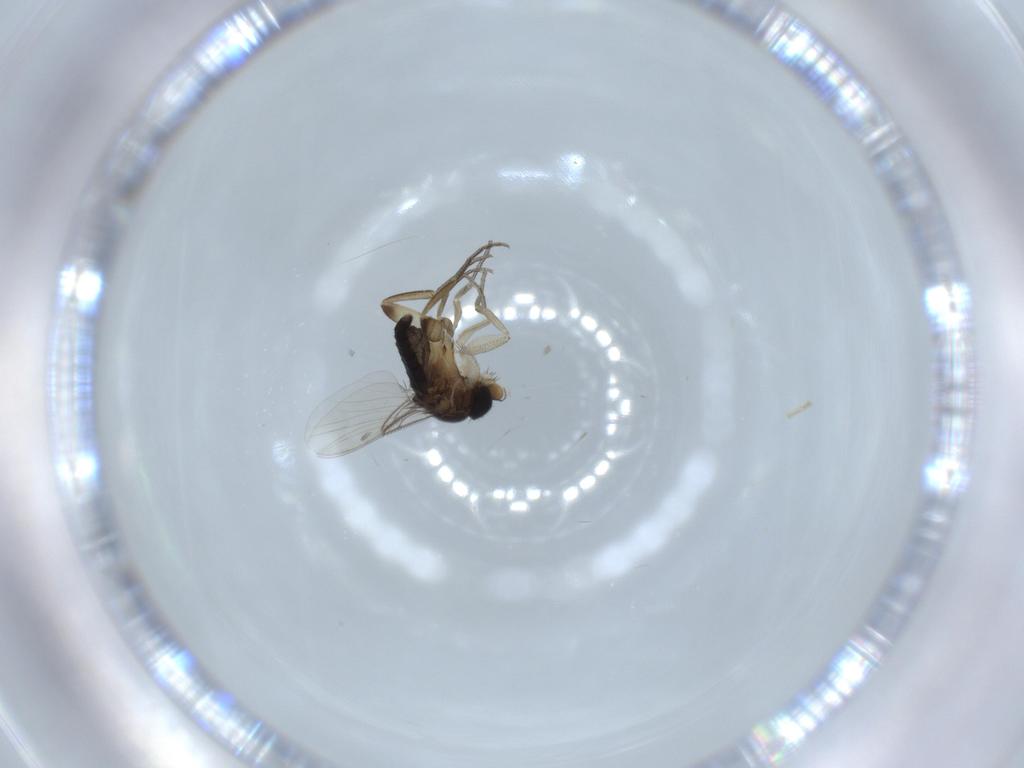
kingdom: Animalia
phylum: Arthropoda
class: Insecta
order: Diptera
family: Phoridae
